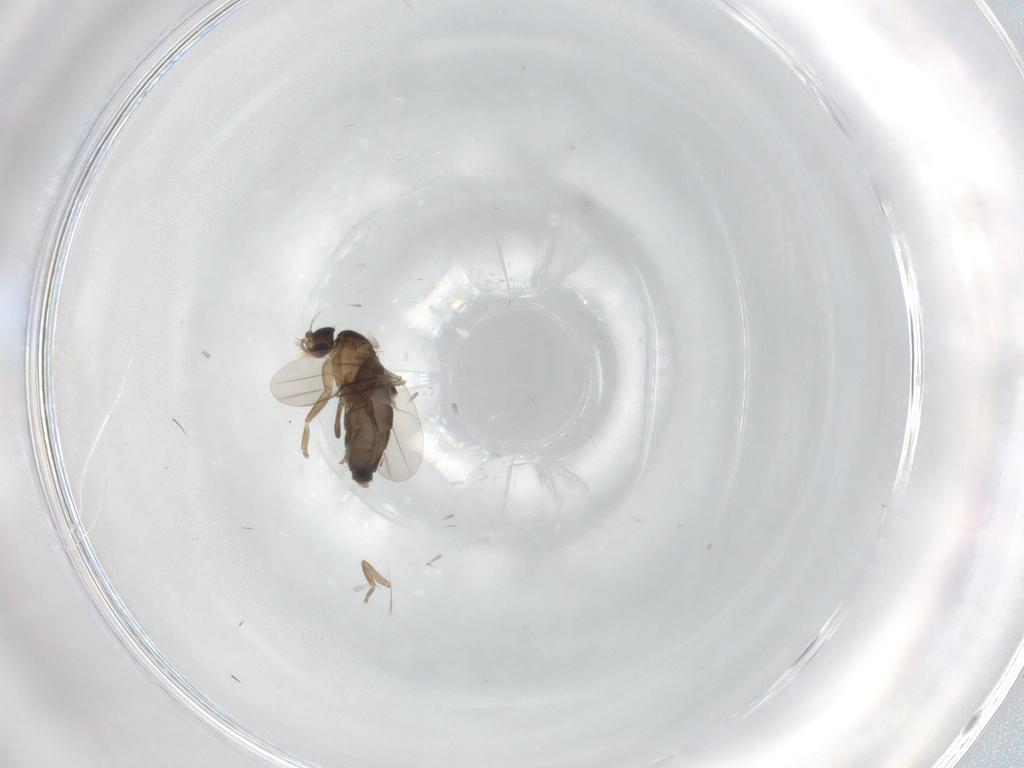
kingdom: Animalia
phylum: Arthropoda
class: Insecta
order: Diptera
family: Phoridae
